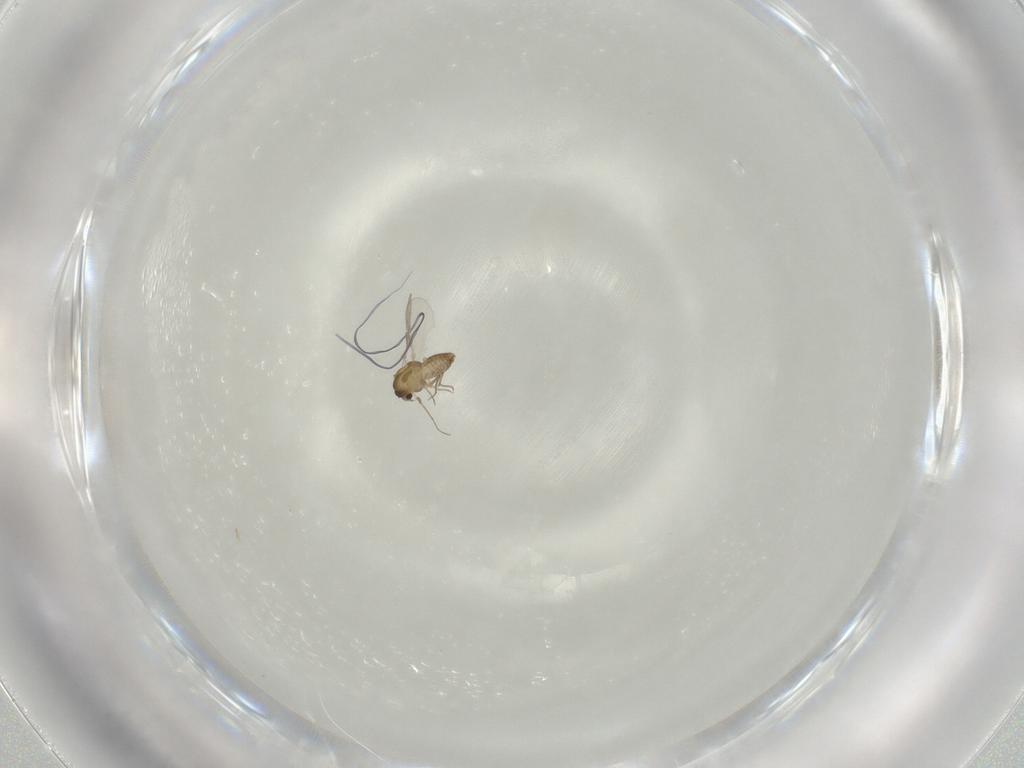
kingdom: Animalia
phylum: Arthropoda
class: Insecta
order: Diptera
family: Chironomidae
